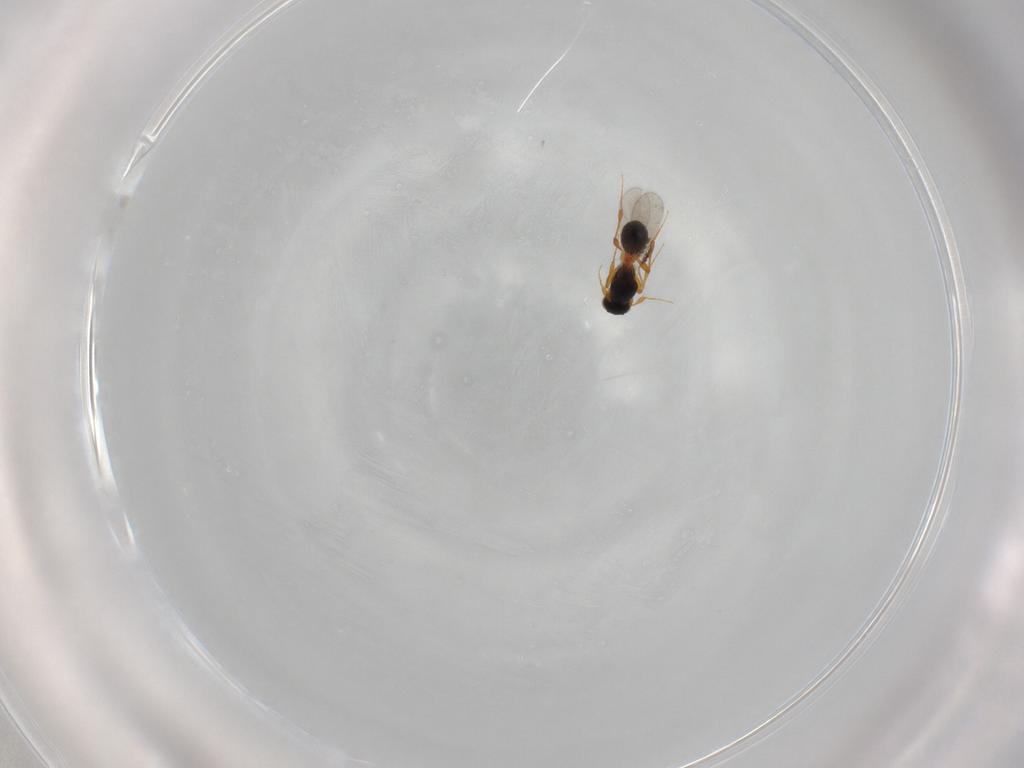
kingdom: Animalia
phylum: Arthropoda
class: Insecta
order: Hymenoptera
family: Platygastridae
